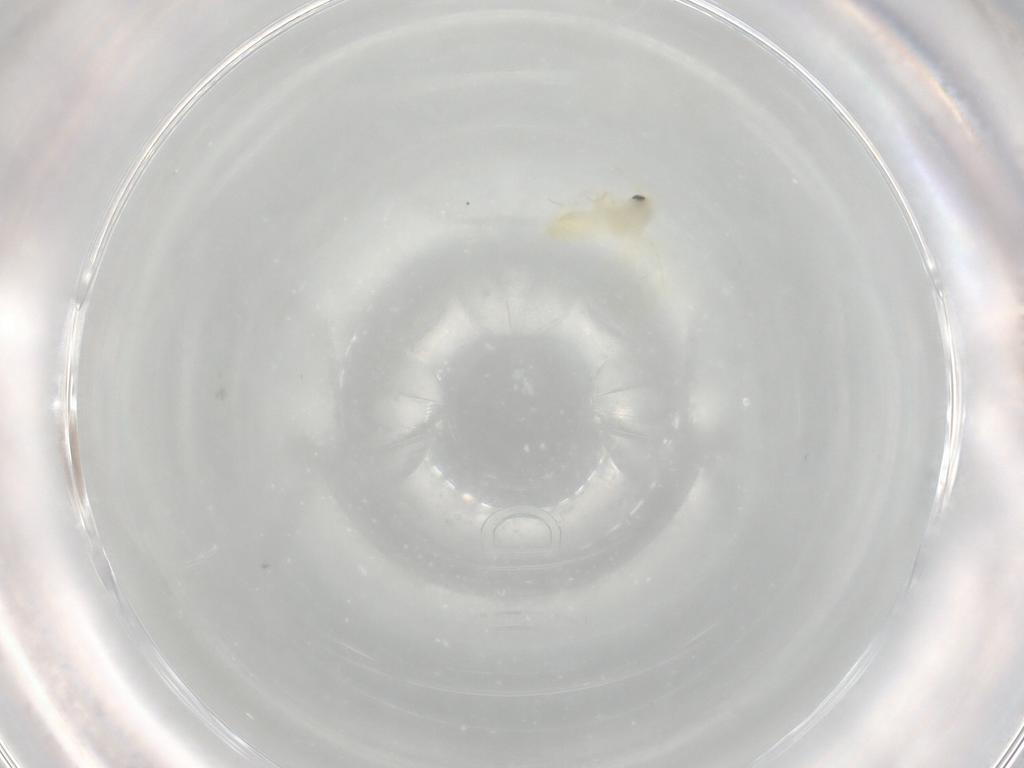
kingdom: Animalia
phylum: Arthropoda
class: Insecta
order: Hemiptera
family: Aleyrodidae
